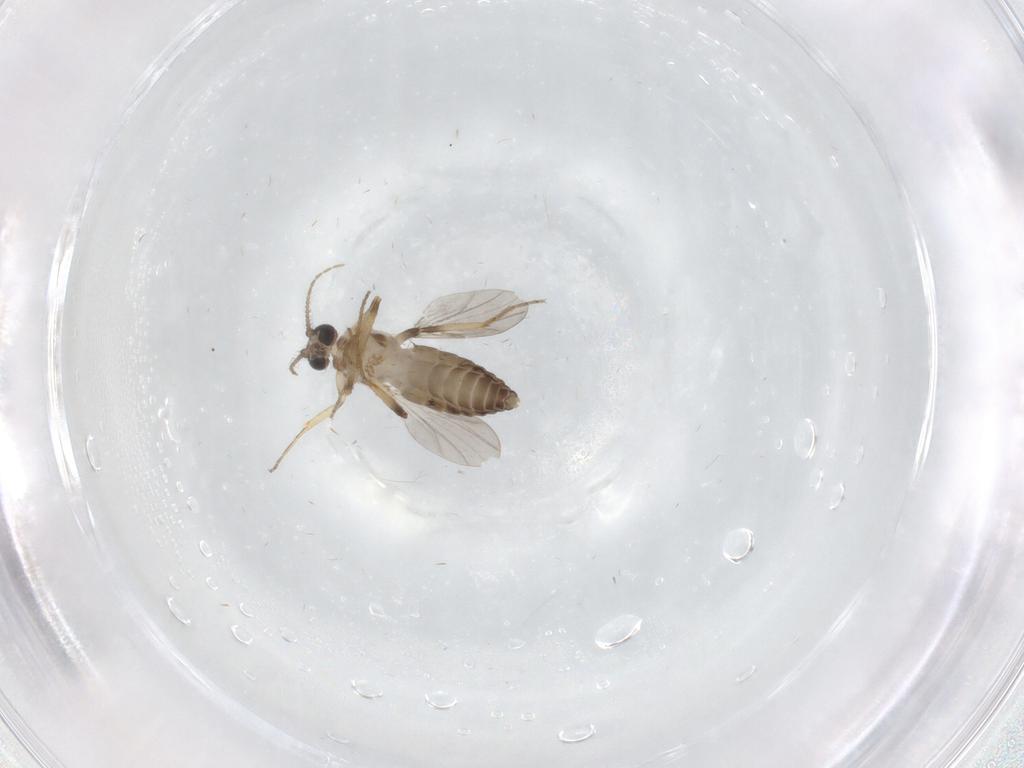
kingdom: Animalia
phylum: Arthropoda
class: Insecta
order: Diptera
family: Ceratopogonidae
